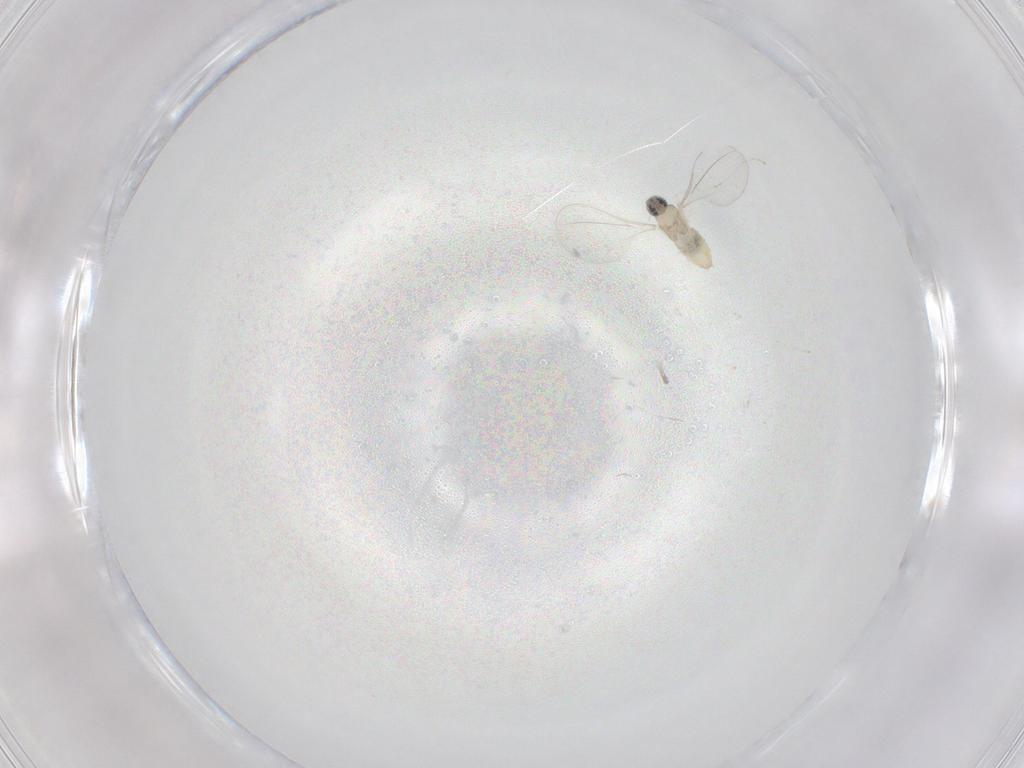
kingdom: Animalia
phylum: Arthropoda
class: Insecta
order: Diptera
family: Cecidomyiidae
